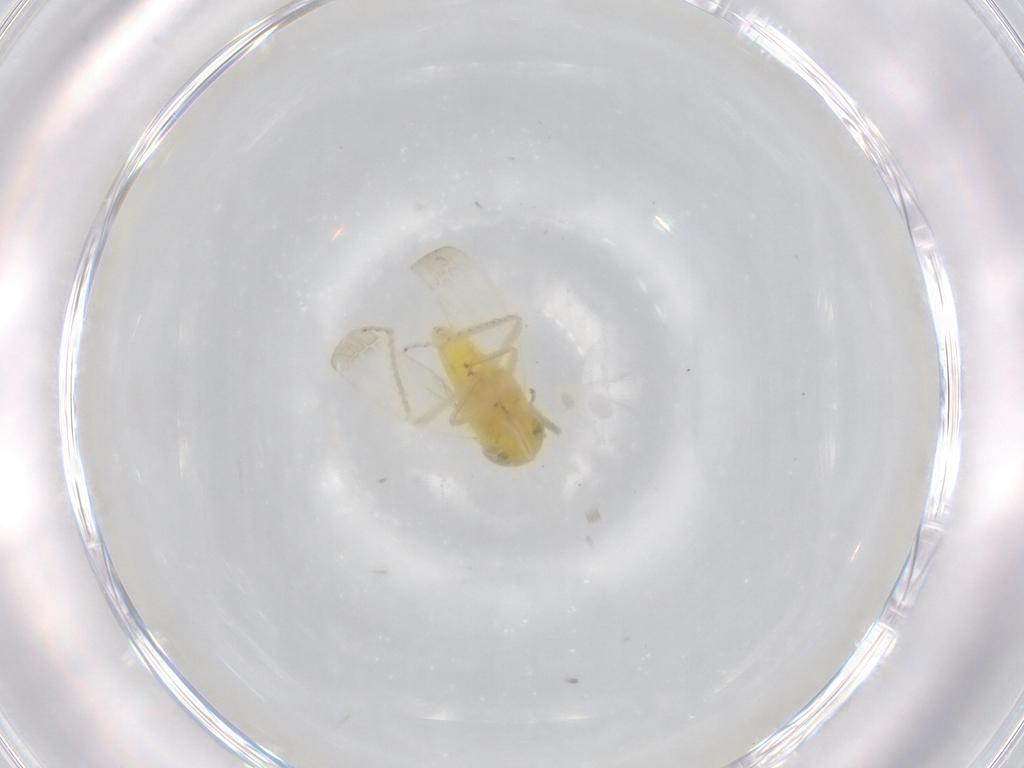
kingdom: Animalia
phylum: Arthropoda
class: Insecta
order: Hemiptera
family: Cicadellidae
